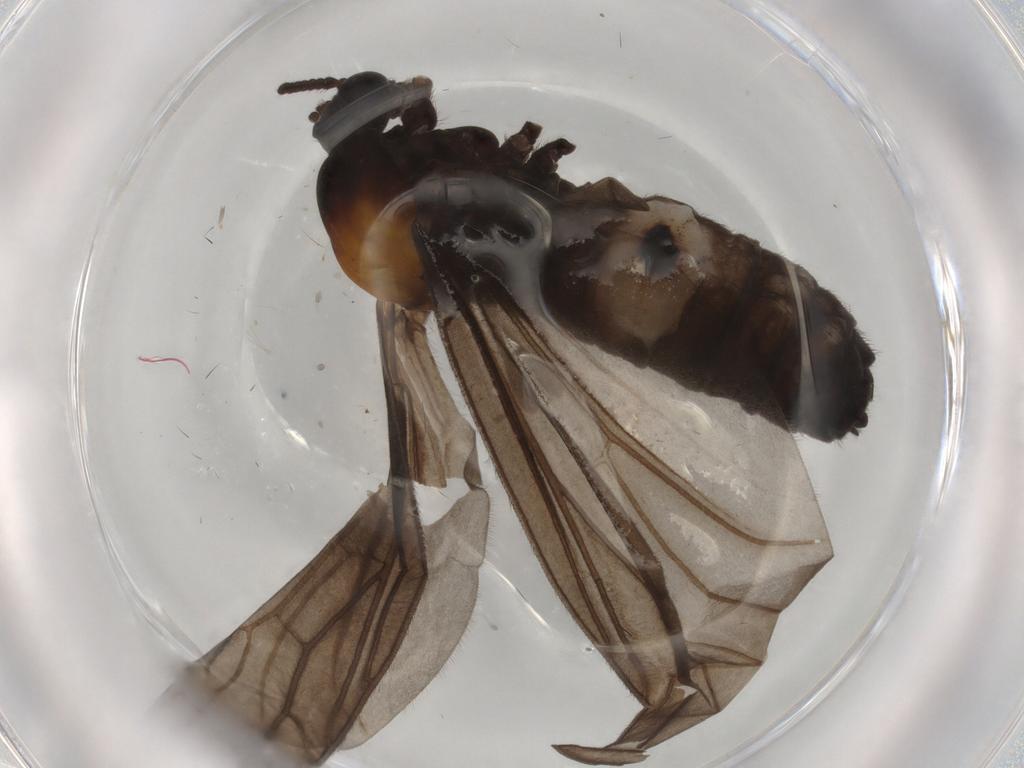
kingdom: Animalia
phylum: Arthropoda
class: Insecta
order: Diptera
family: Bibionidae
